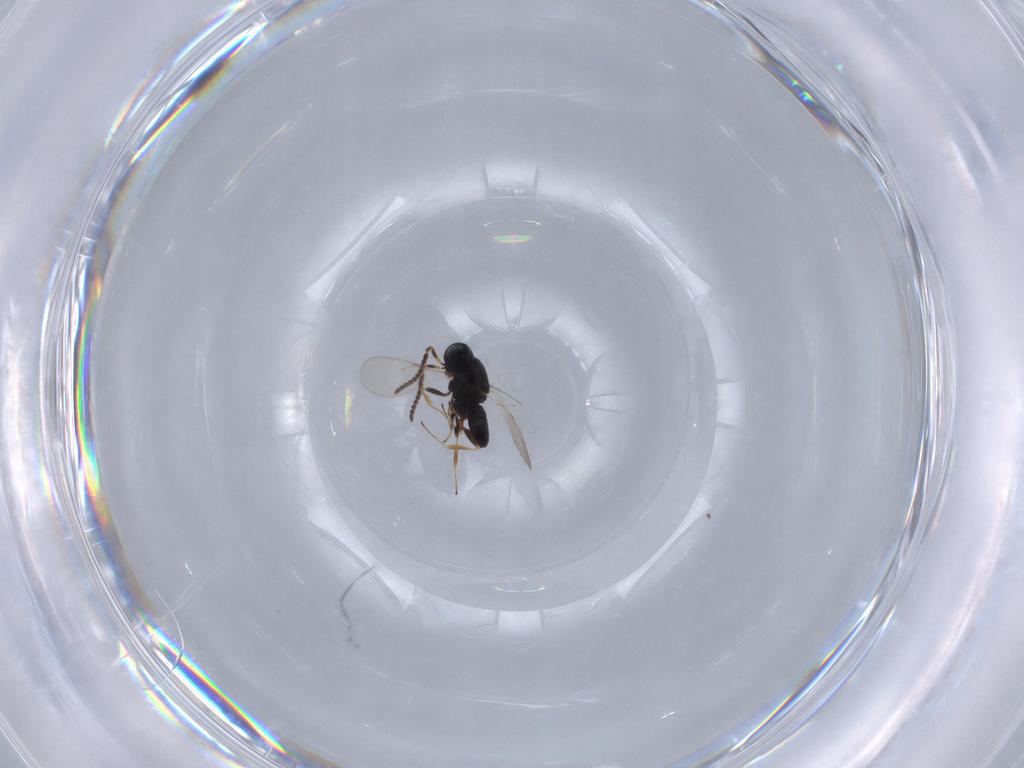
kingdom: Animalia
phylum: Arthropoda
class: Insecta
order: Hymenoptera
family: Scelionidae
